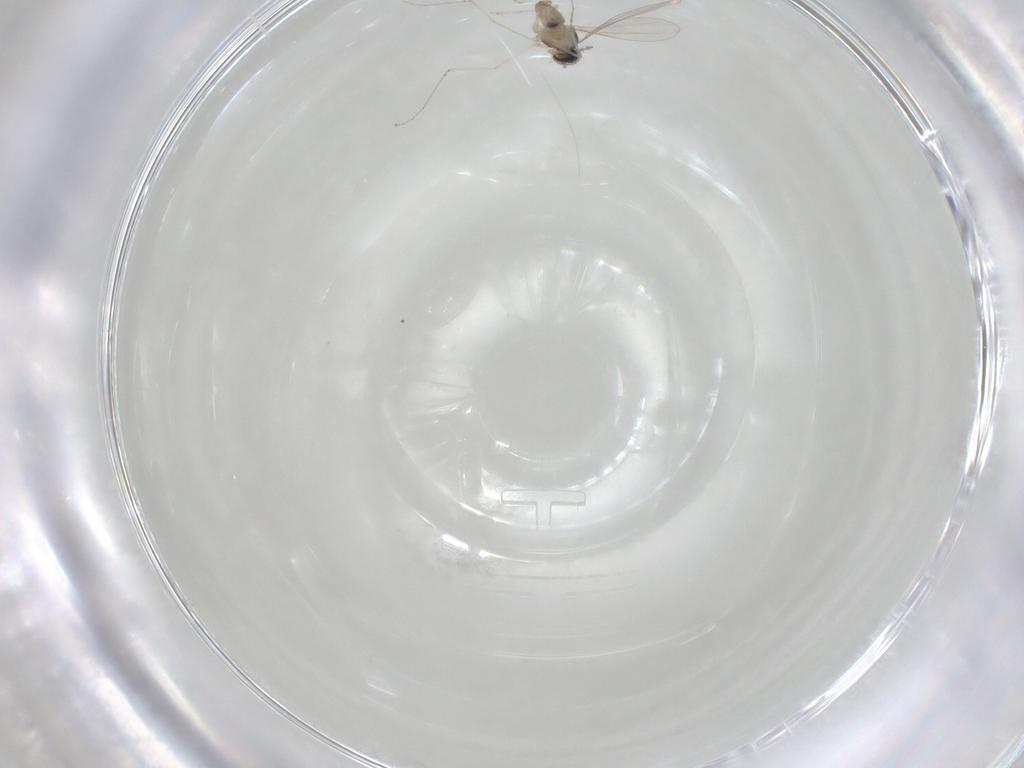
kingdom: Animalia
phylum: Arthropoda
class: Insecta
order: Diptera
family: Cecidomyiidae
